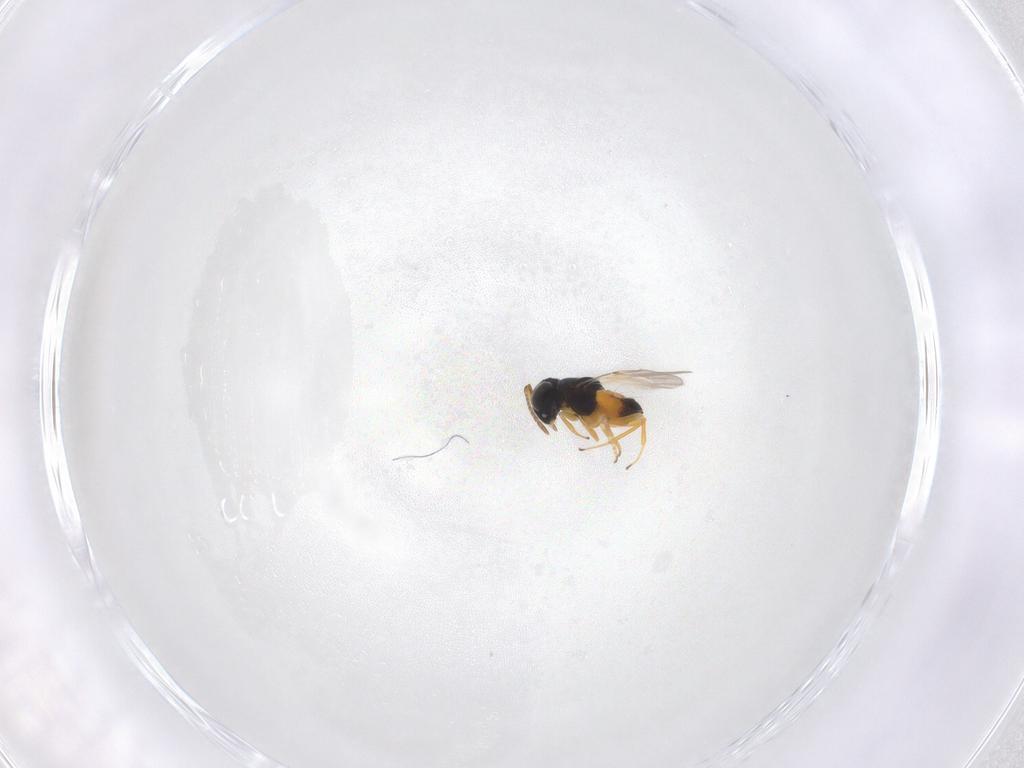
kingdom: Animalia
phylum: Arthropoda
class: Insecta
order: Hymenoptera
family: Encyrtidae
